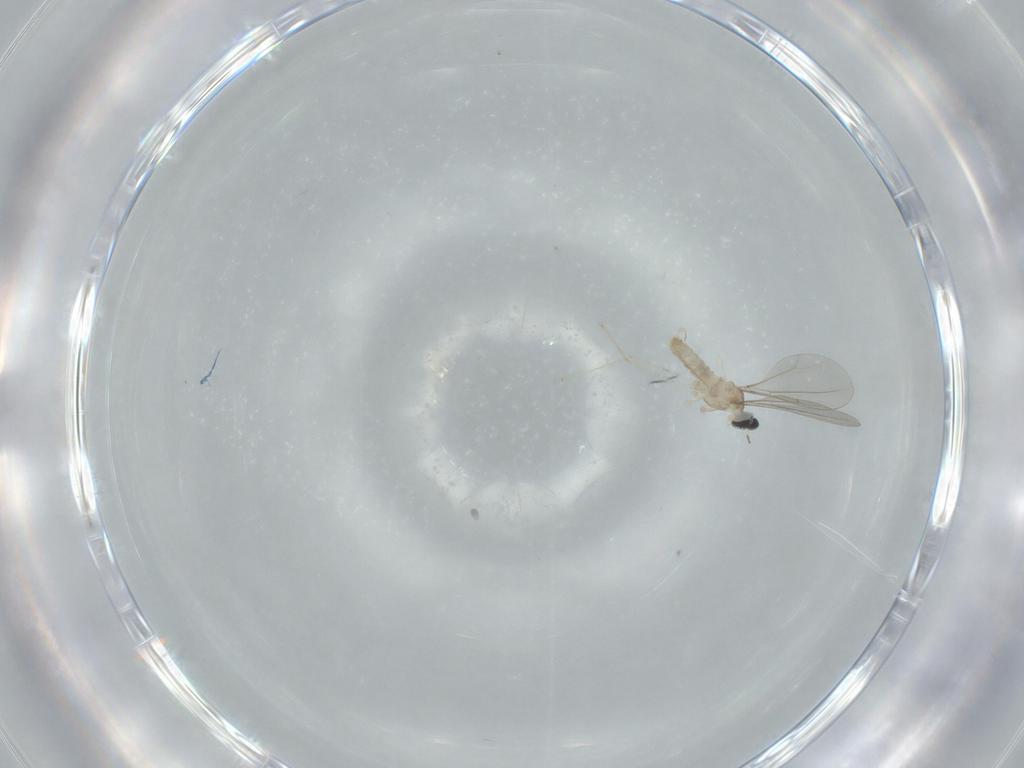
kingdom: Animalia
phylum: Arthropoda
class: Insecta
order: Diptera
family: Cecidomyiidae
